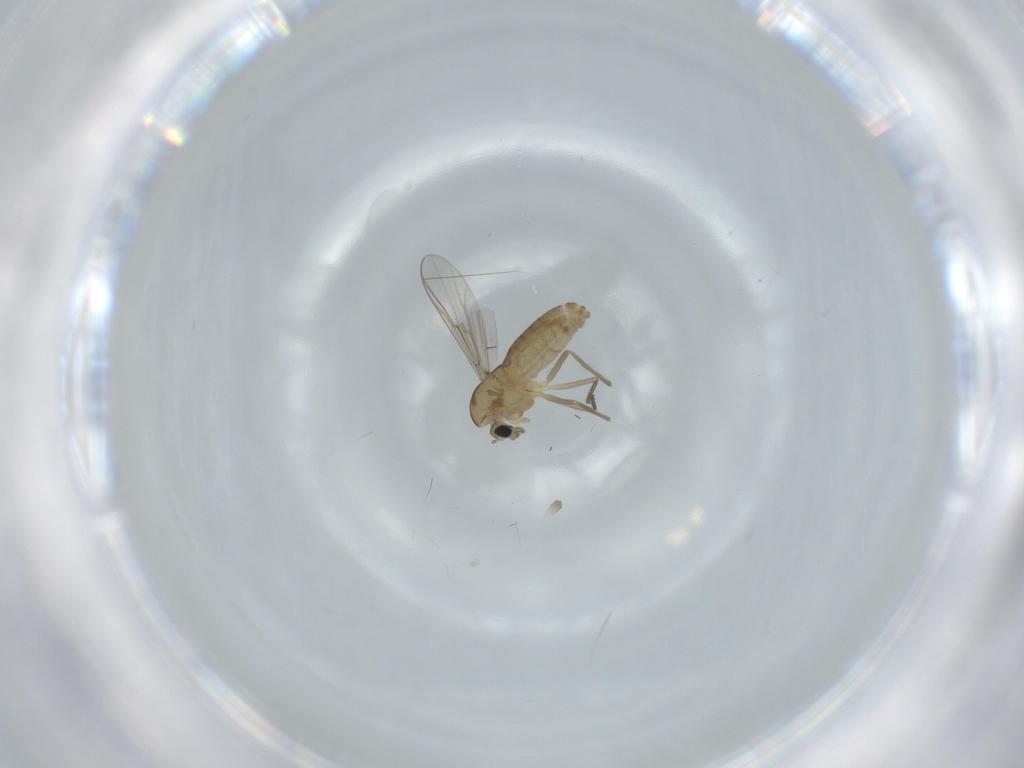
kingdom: Animalia
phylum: Arthropoda
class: Insecta
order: Diptera
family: Chironomidae
